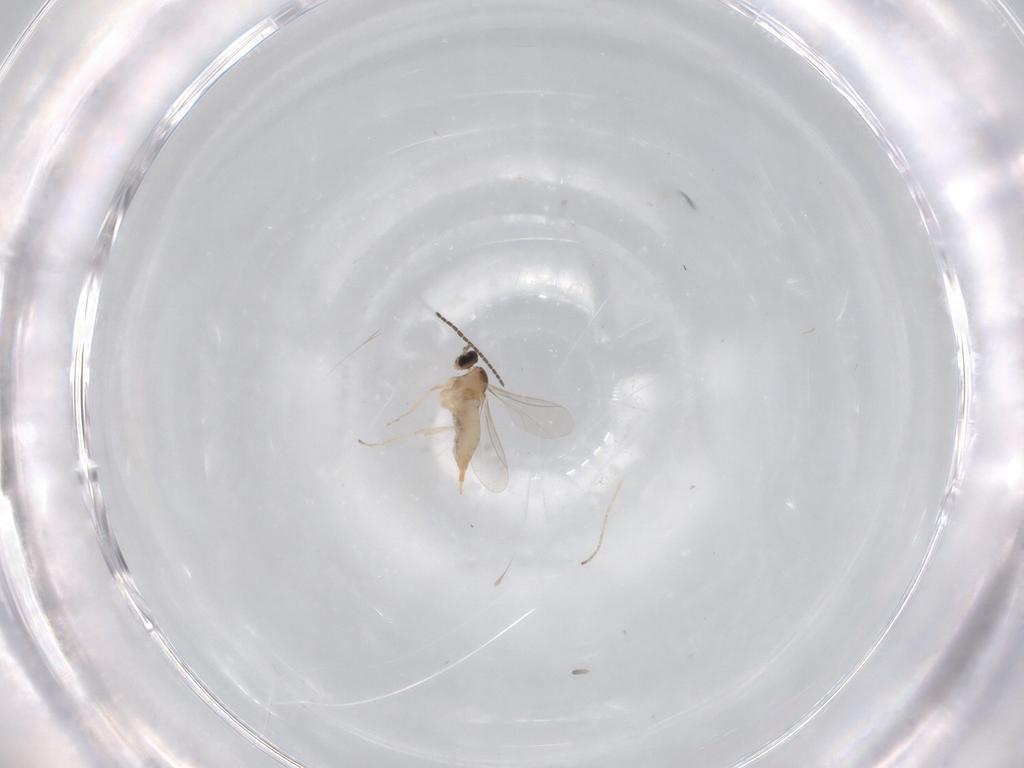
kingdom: Animalia
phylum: Arthropoda
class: Insecta
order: Diptera
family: Cecidomyiidae
